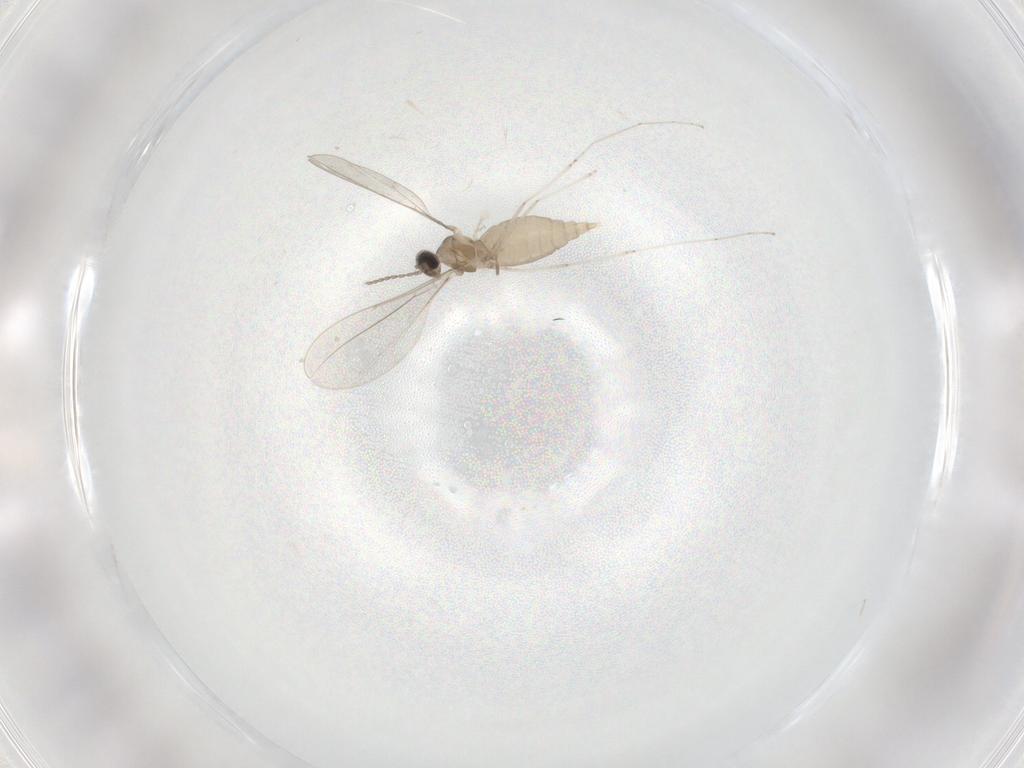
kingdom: Animalia
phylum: Arthropoda
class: Insecta
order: Diptera
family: Cecidomyiidae
